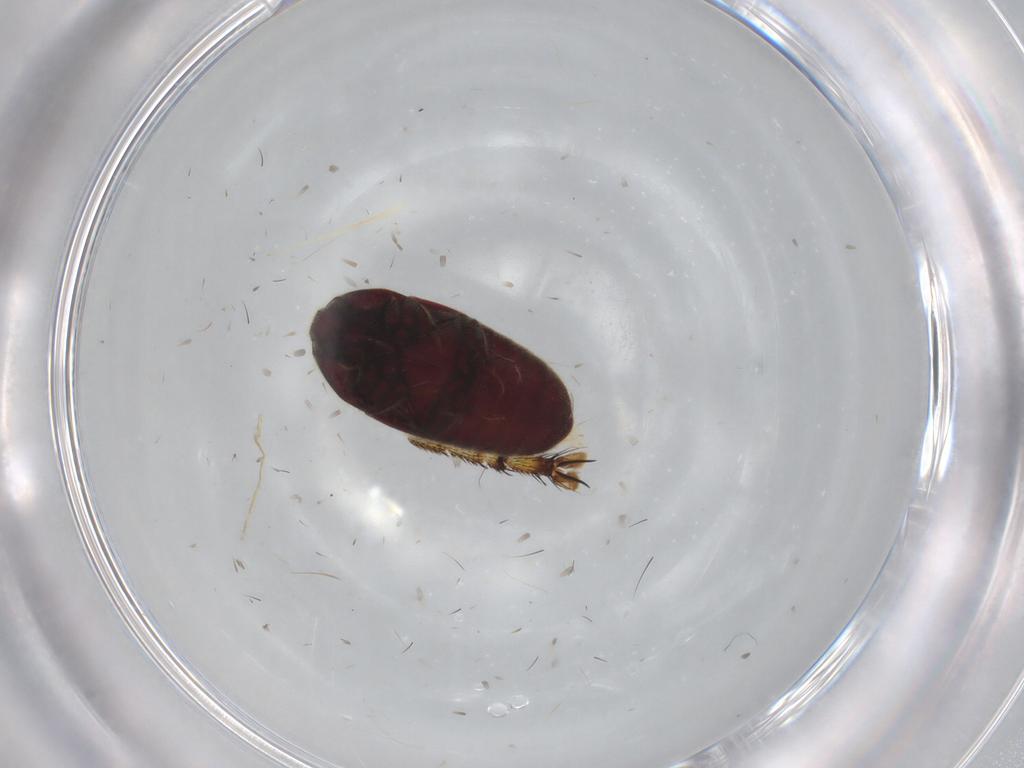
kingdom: Animalia
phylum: Arthropoda
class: Insecta
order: Coleoptera
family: Throscidae
